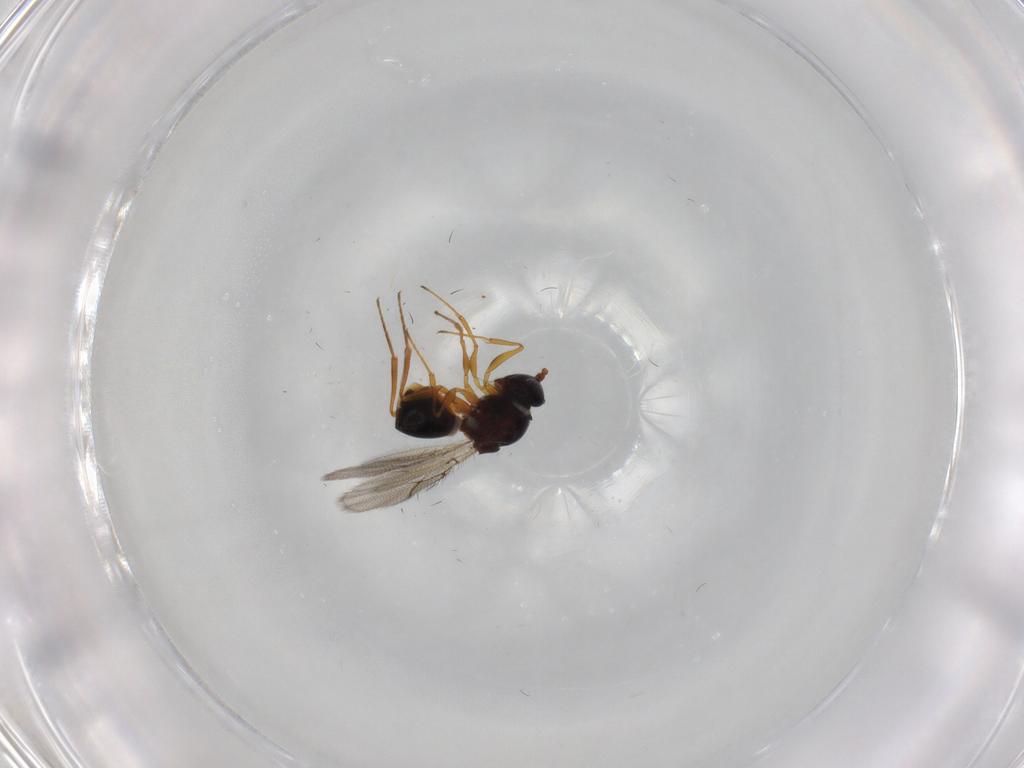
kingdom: Animalia
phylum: Arthropoda
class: Insecta
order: Hymenoptera
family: Figitidae
